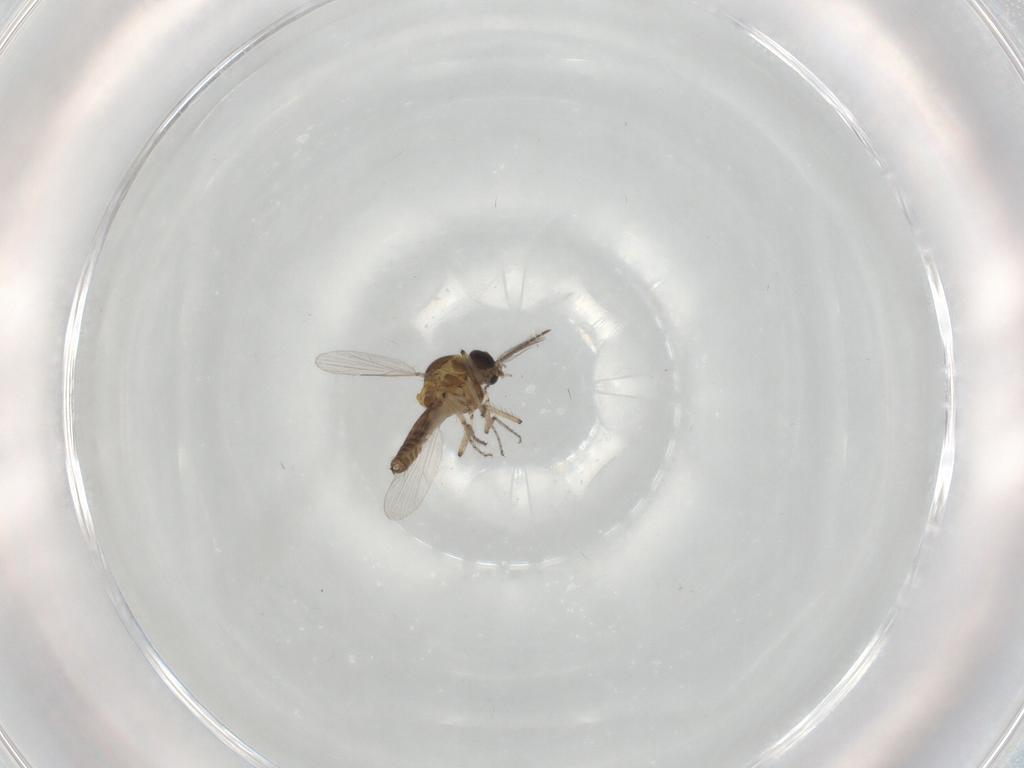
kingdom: Animalia
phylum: Arthropoda
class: Insecta
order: Diptera
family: Ceratopogonidae
